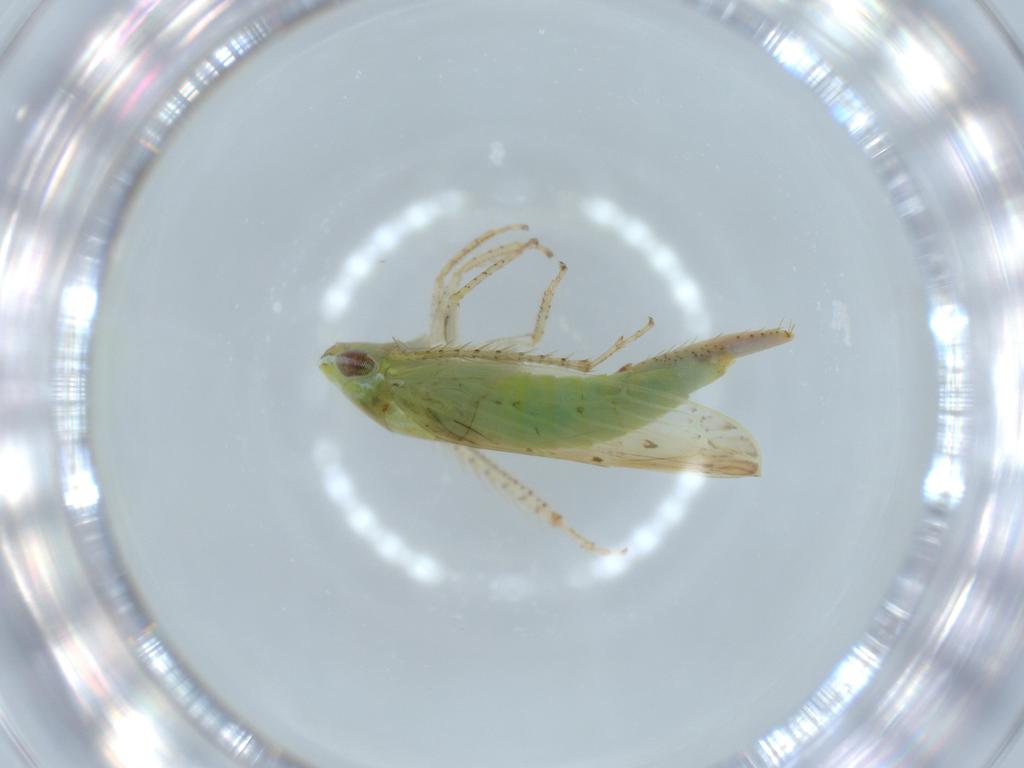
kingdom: Animalia
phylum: Arthropoda
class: Insecta
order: Hemiptera
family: Cicadellidae
